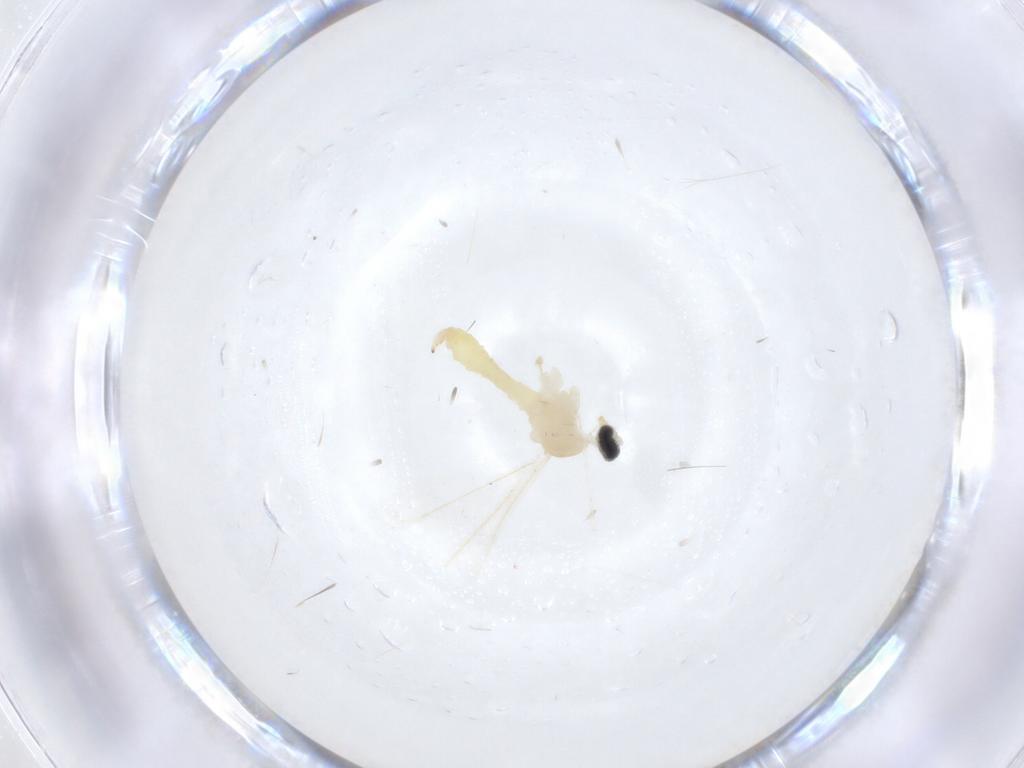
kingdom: Animalia
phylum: Arthropoda
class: Insecta
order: Diptera
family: Cecidomyiidae
